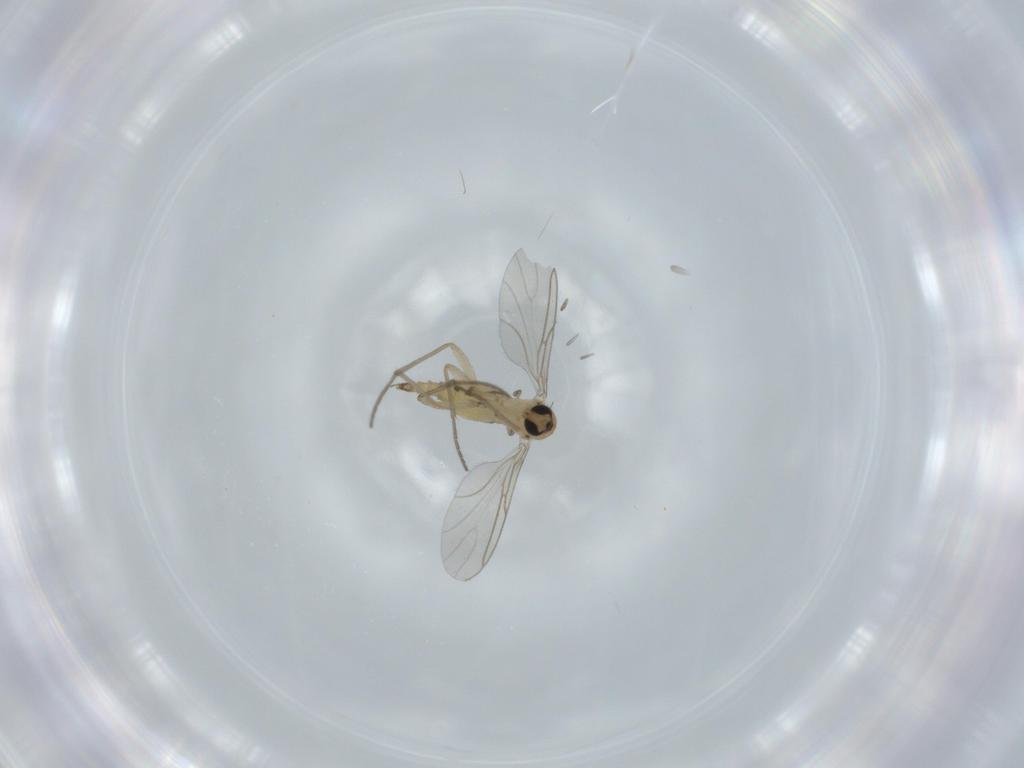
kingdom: Animalia
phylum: Arthropoda
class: Insecta
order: Diptera
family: Sciaridae
